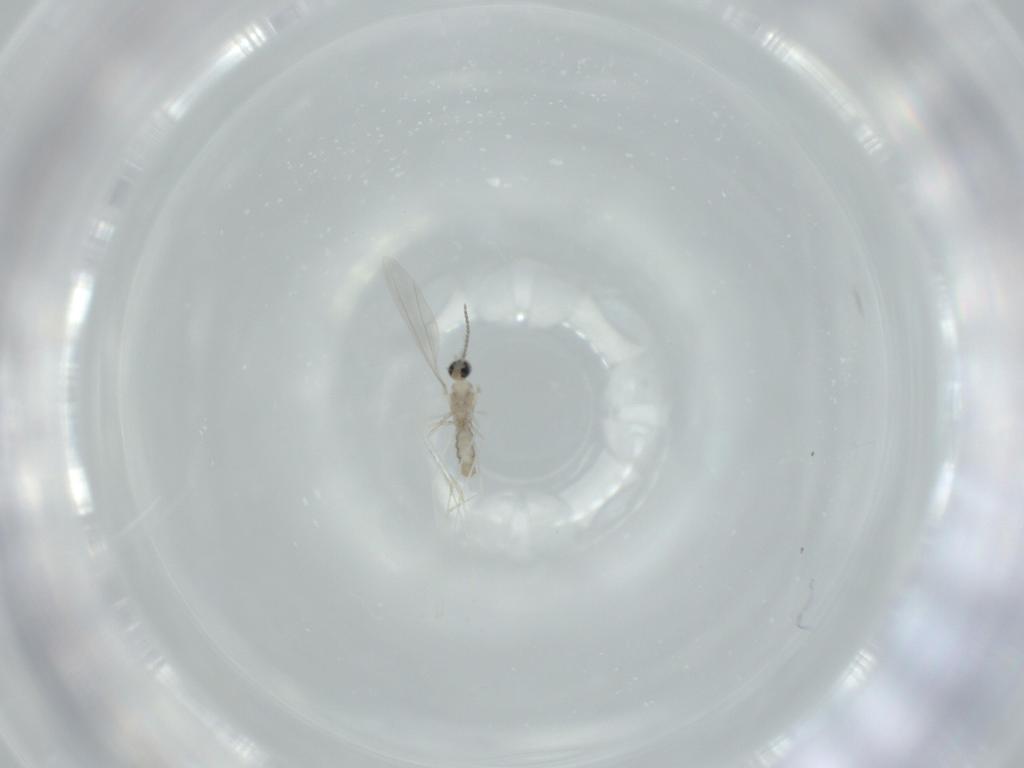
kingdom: Animalia
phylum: Arthropoda
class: Insecta
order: Diptera
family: Cecidomyiidae
